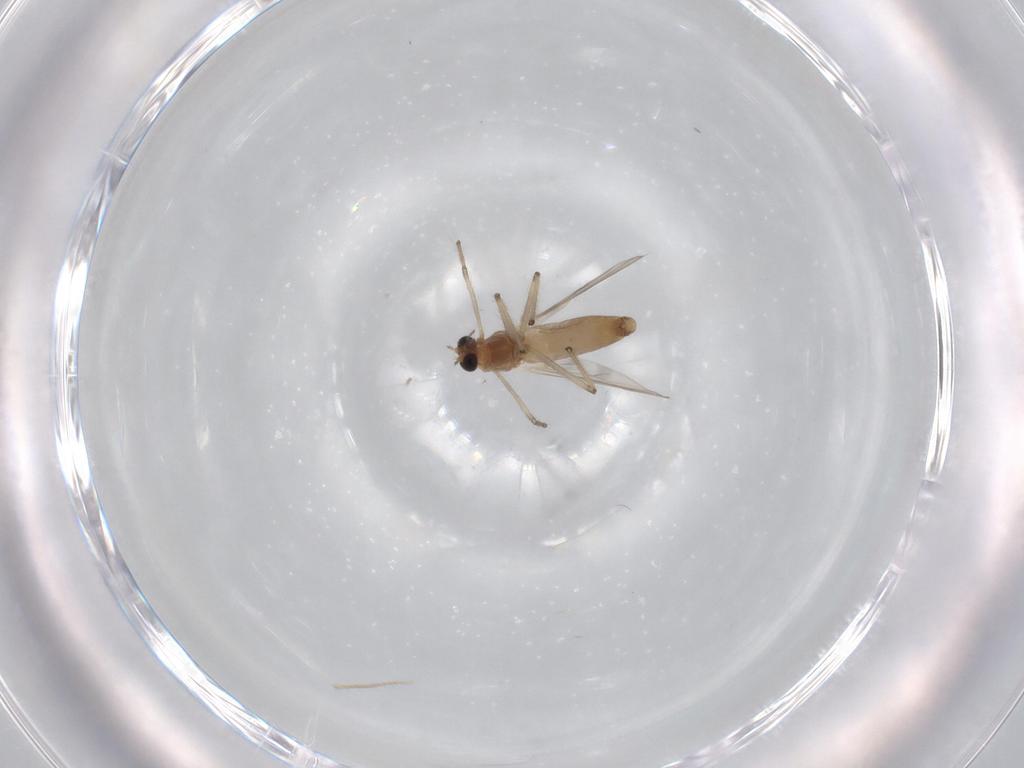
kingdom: Animalia
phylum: Arthropoda
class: Insecta
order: Diptera
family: Chironomidae
